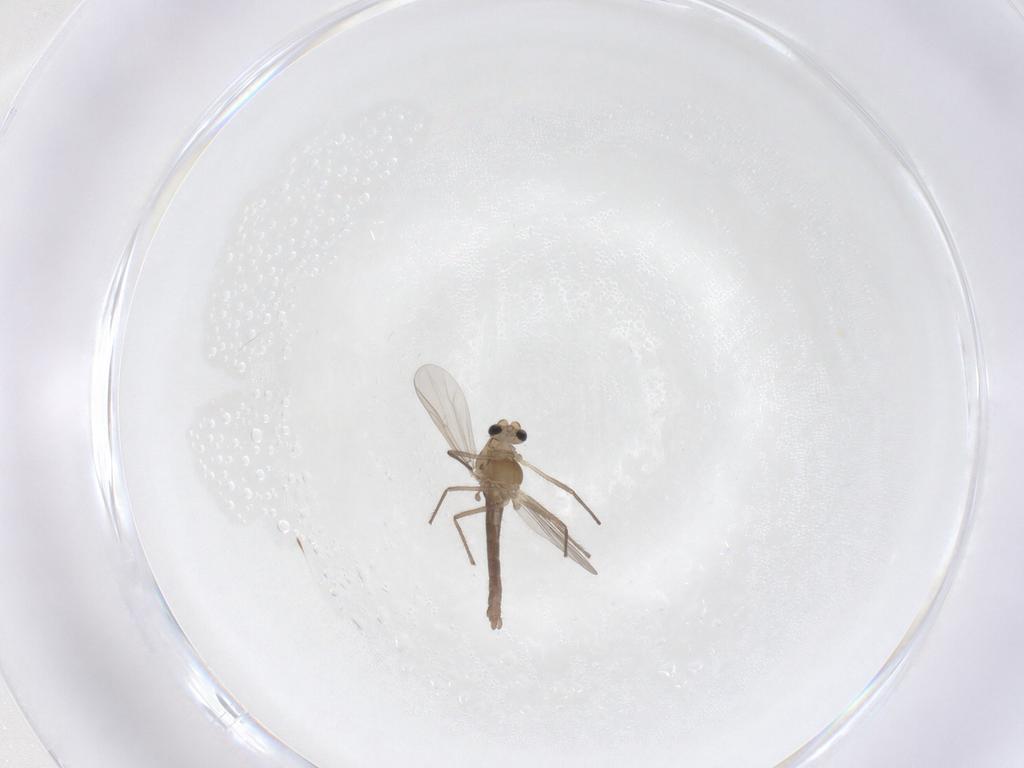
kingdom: Animalia
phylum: Arthropoda
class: Insecta
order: Diptera
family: Chironomidae
